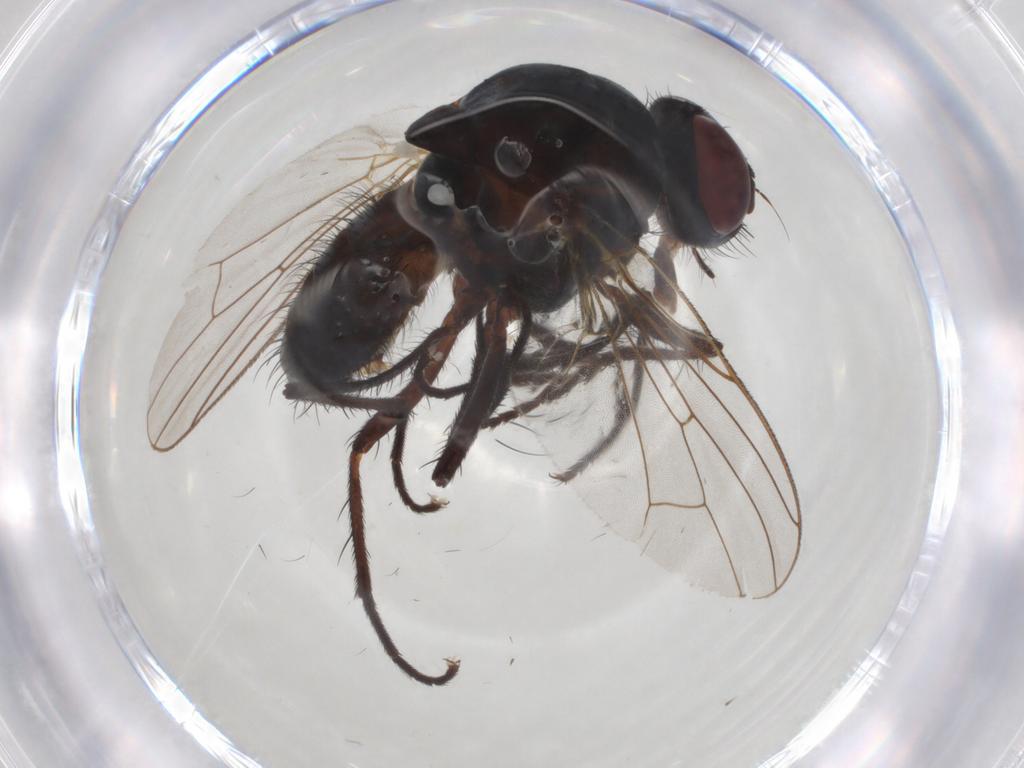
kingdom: Animalia
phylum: Arthropoda
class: Insecta
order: Diptera
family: Anthomyiidae
